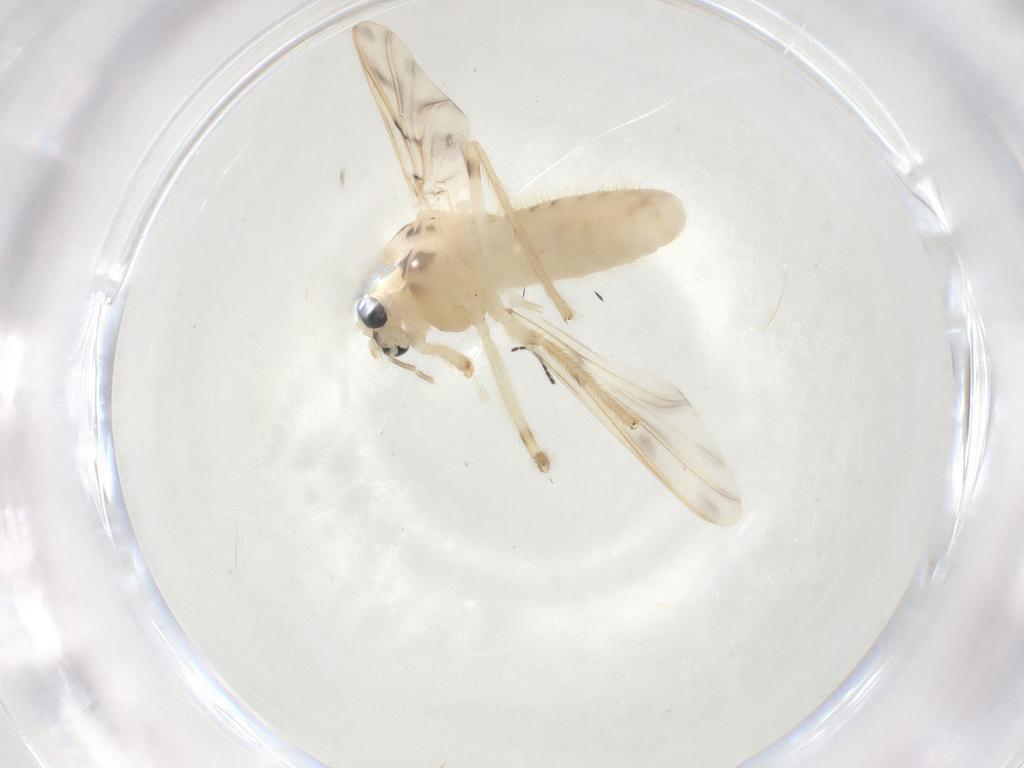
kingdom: Animalia
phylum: Arthropoda
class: Insecta
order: Diptera
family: Chironomidae
